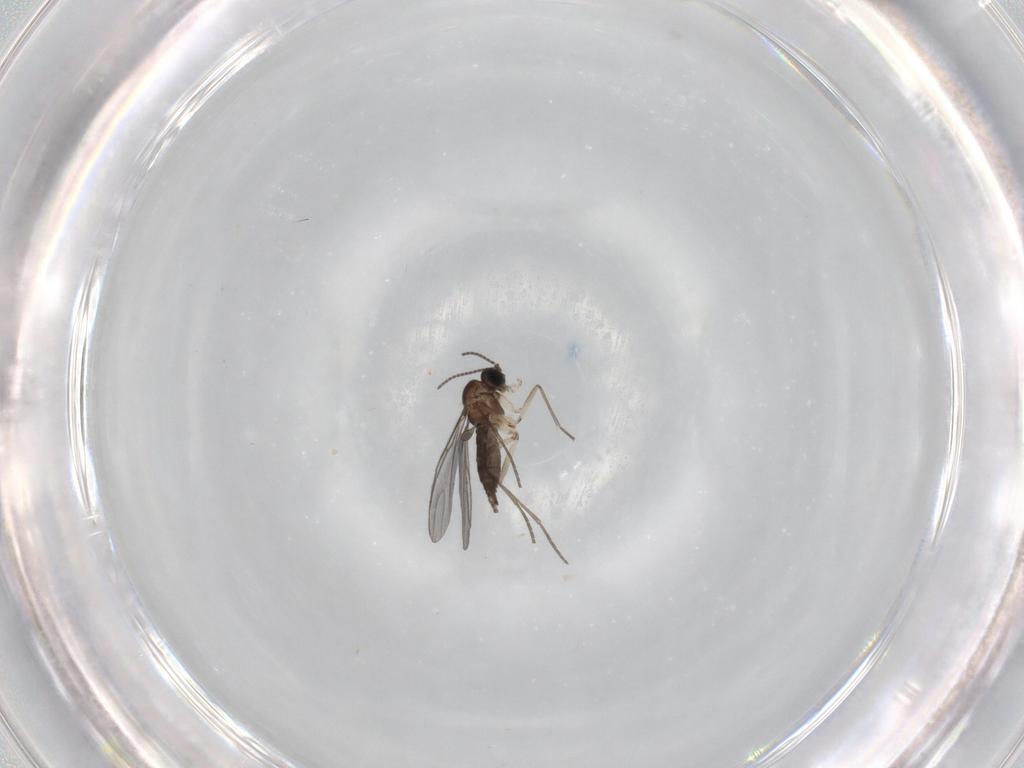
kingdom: Animalia
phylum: Arthropoda
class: Insecta
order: Diptera
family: Sciaridae
